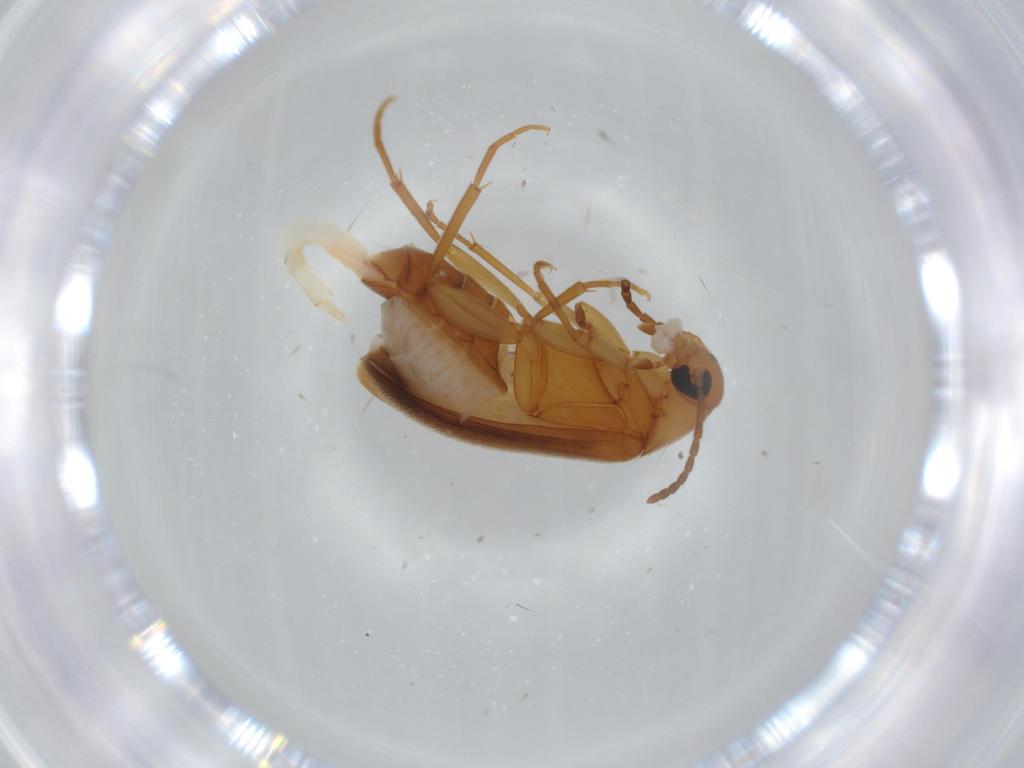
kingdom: Animalia
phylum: Arthropoda
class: Insecta
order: Coleoptera
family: Scraptiidae
